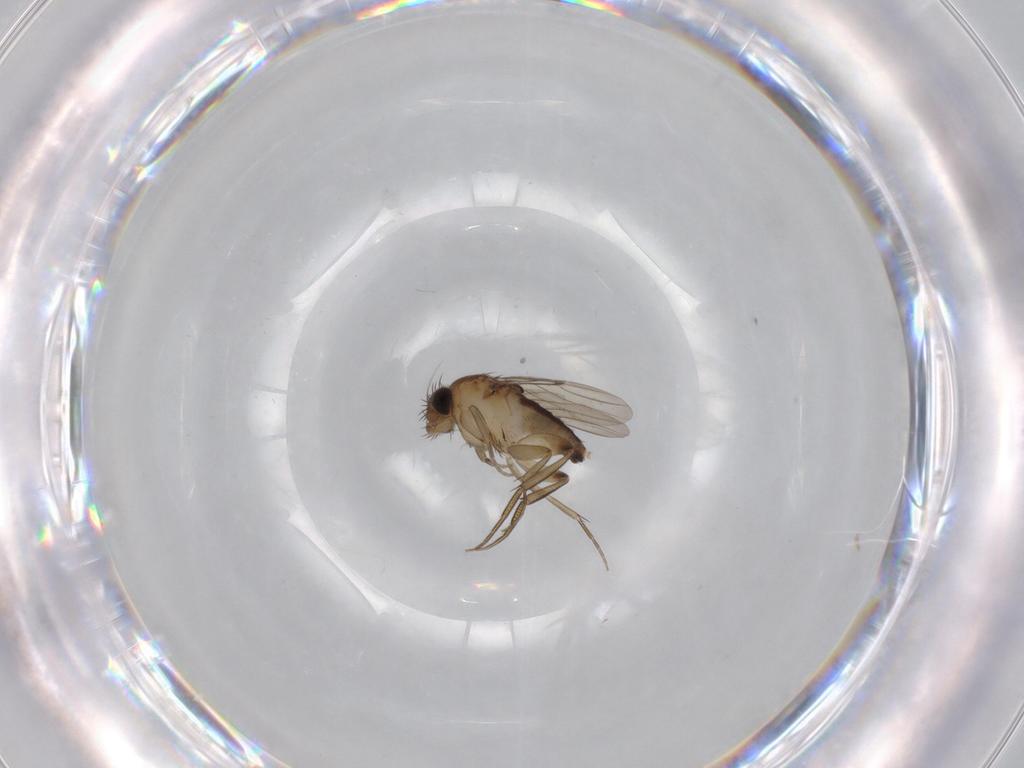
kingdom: Animalia
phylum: Arthropoda
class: Insecta
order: Diptera
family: Phoridae
